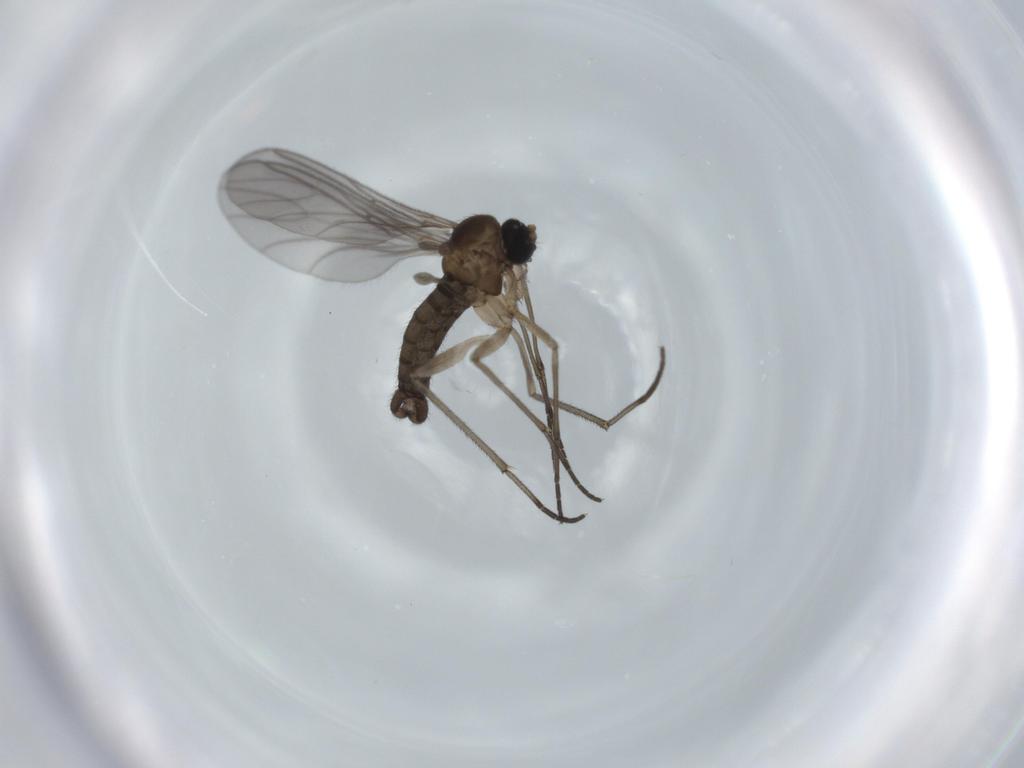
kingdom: Animalia
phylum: Arthropoda
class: Insecta
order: Diptera
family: Sciaridae
